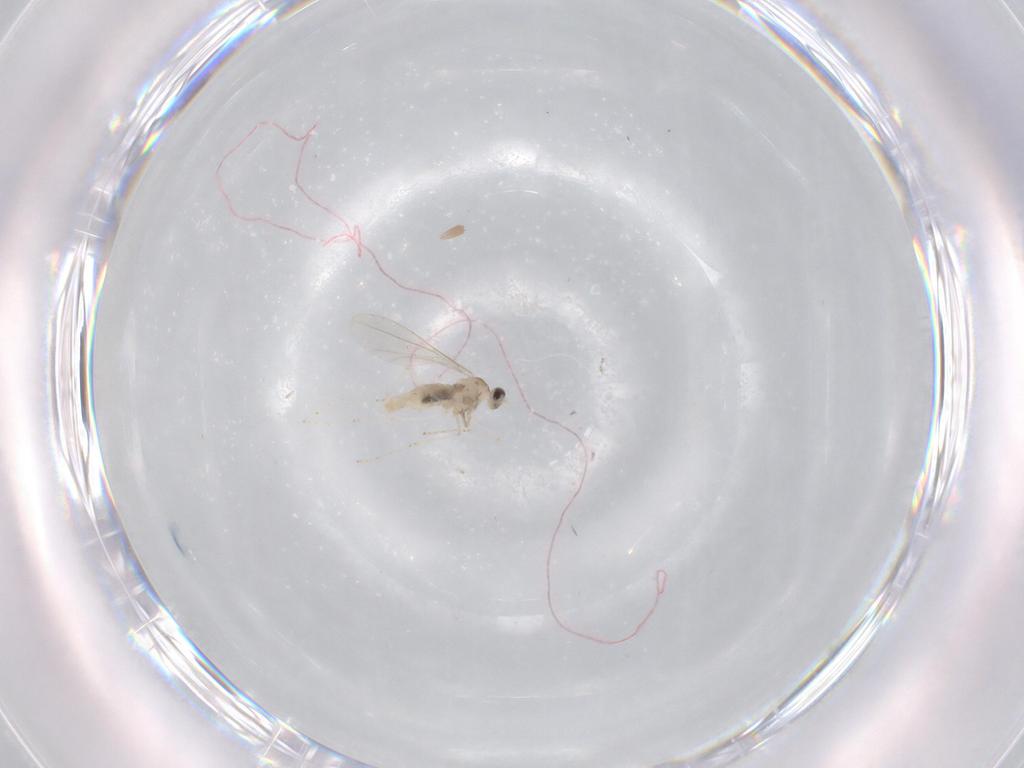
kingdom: Animalia
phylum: Arthropoda
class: Insecta
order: Diptera
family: Cecidomyiidae
